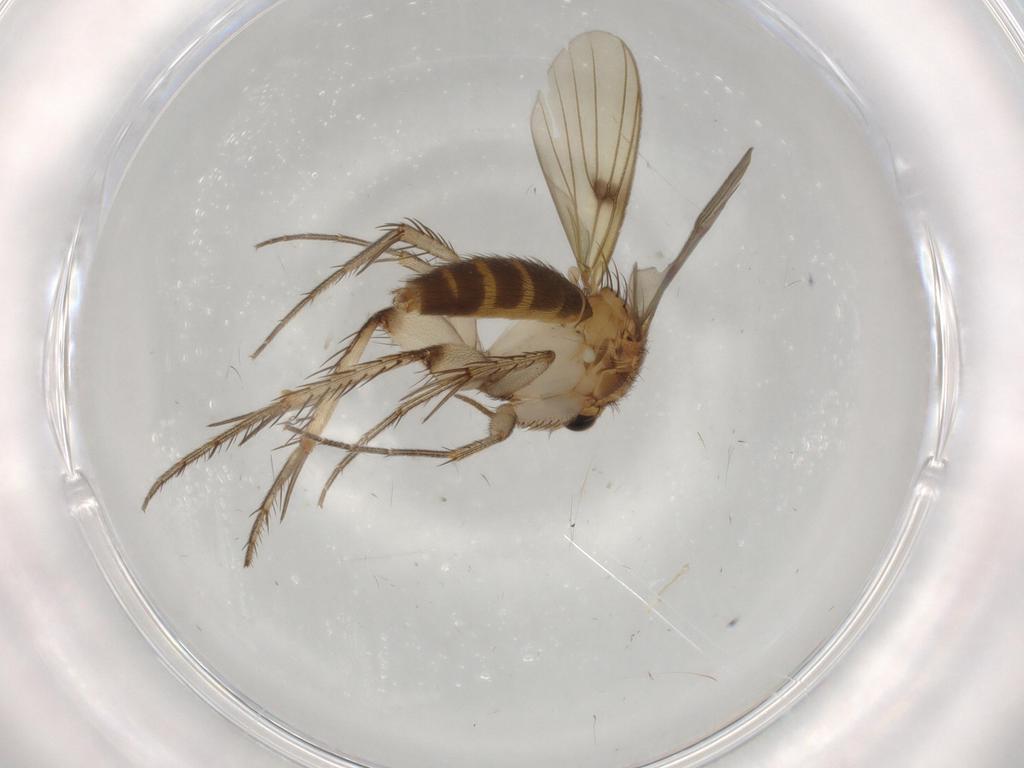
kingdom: Animalia
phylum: Arthropoda
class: Insecta
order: Diptera
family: Mycetophilidae
